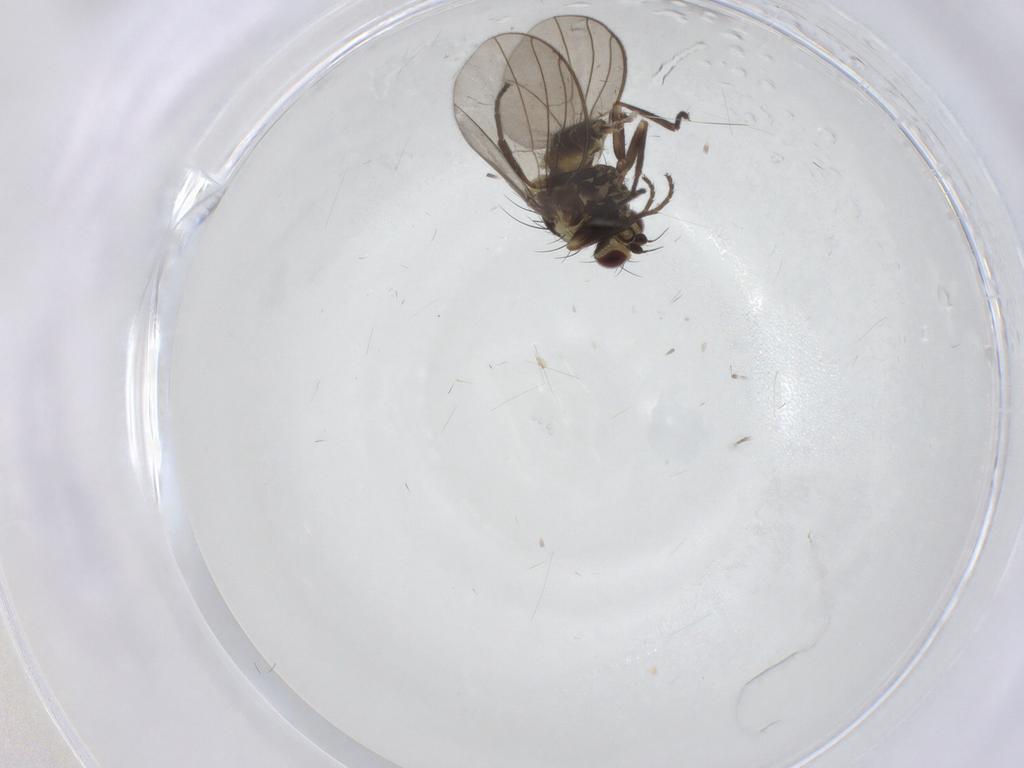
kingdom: Animalia
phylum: Arthropoda
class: Insecta
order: Diptera
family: Agromyzidae
